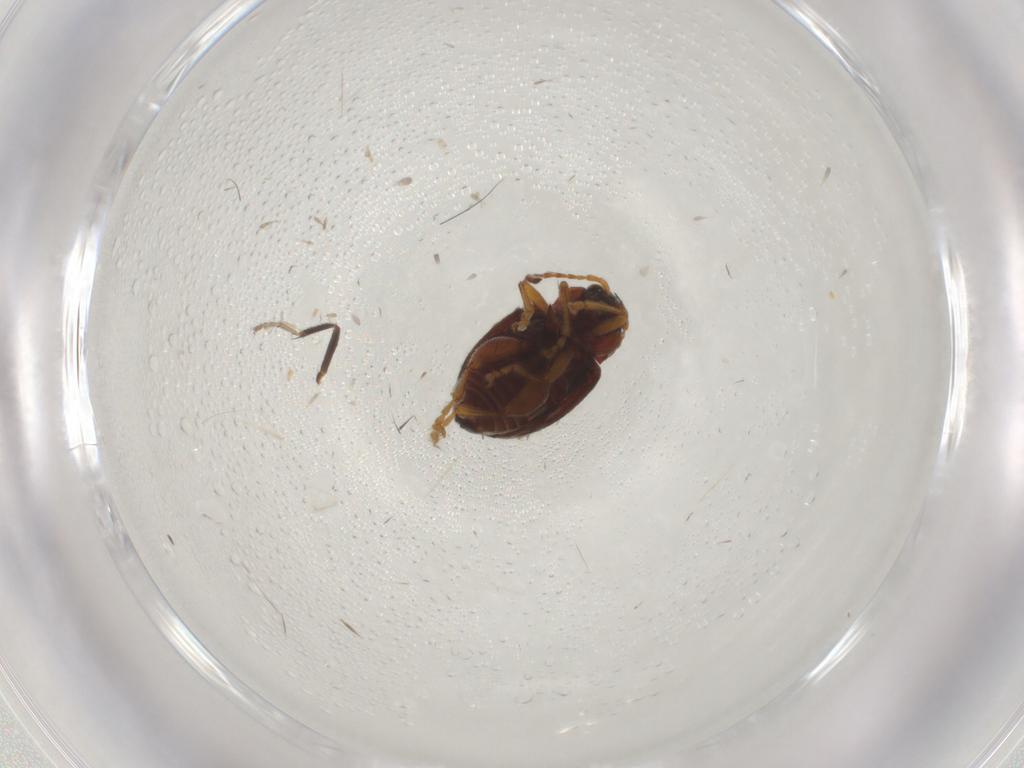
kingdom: Animalia
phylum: Arthropoda
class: Insecta
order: Coleoptera
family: Chrysomelidae
